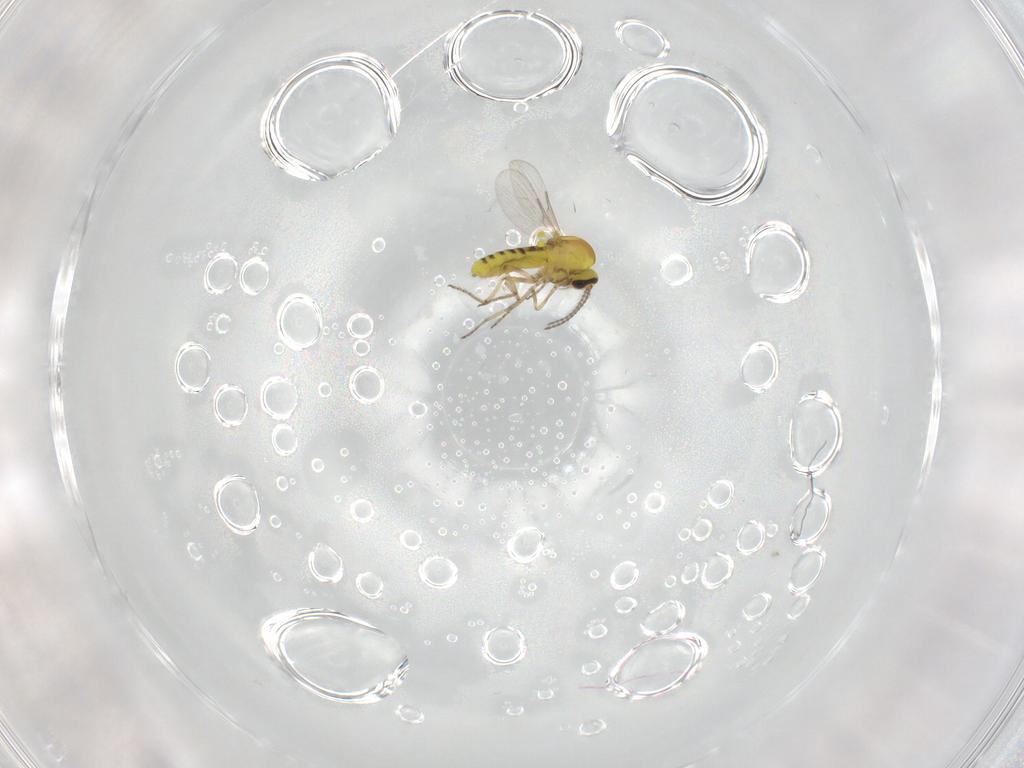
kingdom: Animalia
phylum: Arthropoda
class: Insecta
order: Diptera
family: Ceratopogonidae
